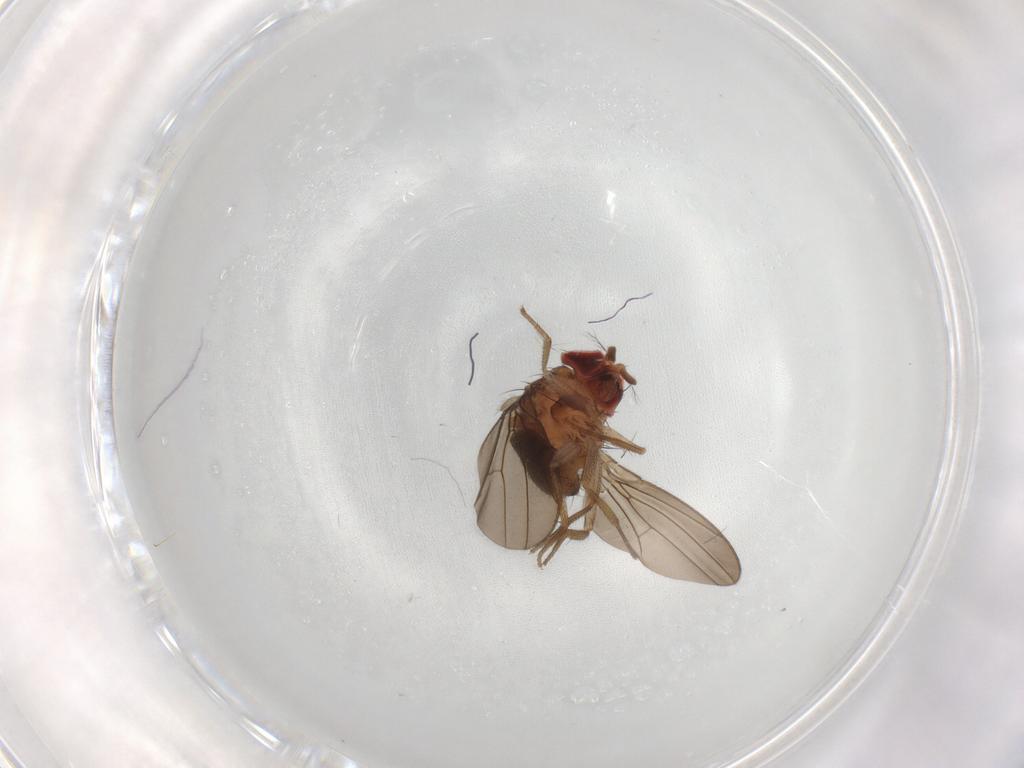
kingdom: Animalia
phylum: Arthropoda
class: Insecta
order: Diptera
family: Drosophilidae
